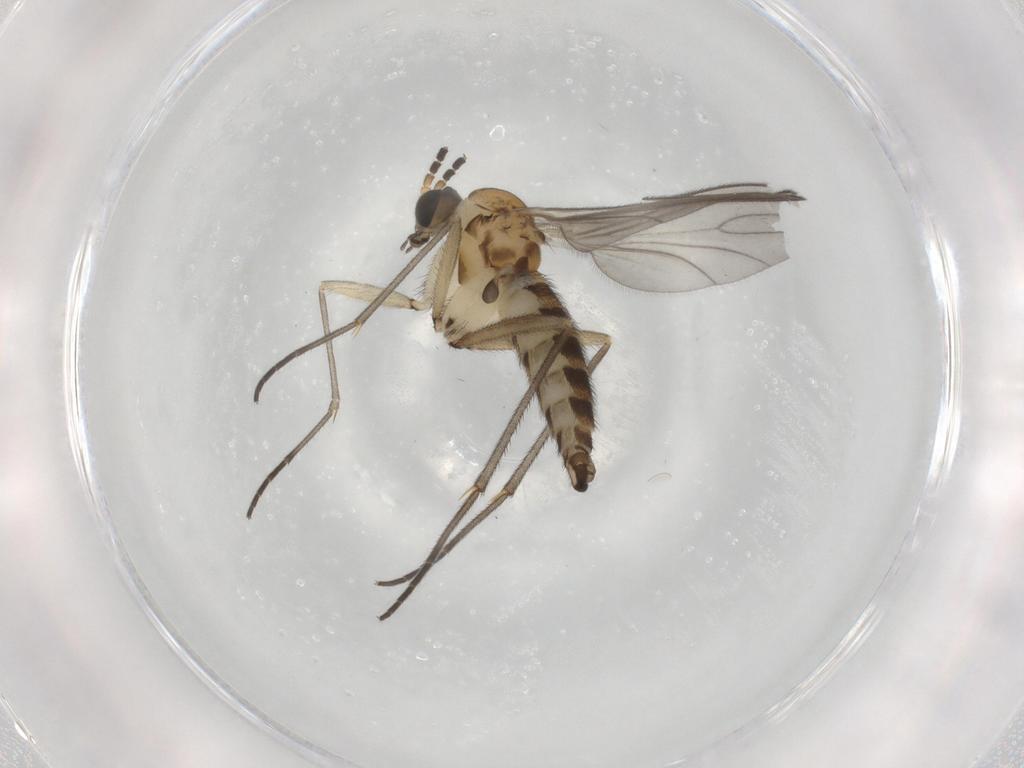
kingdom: Animalia
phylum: Arthropoda
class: Insecta
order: Diptera
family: Sciaridae
